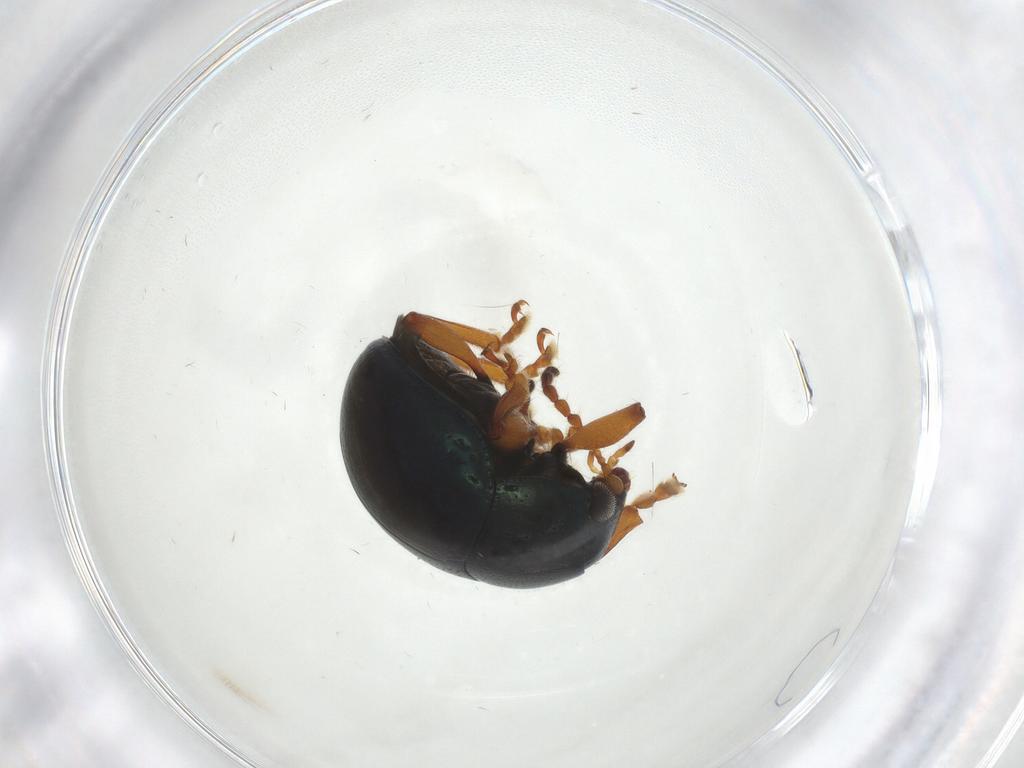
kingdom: Animalia
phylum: Arthropoda
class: Insecta
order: Coleoptera
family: Chrysomelidae
